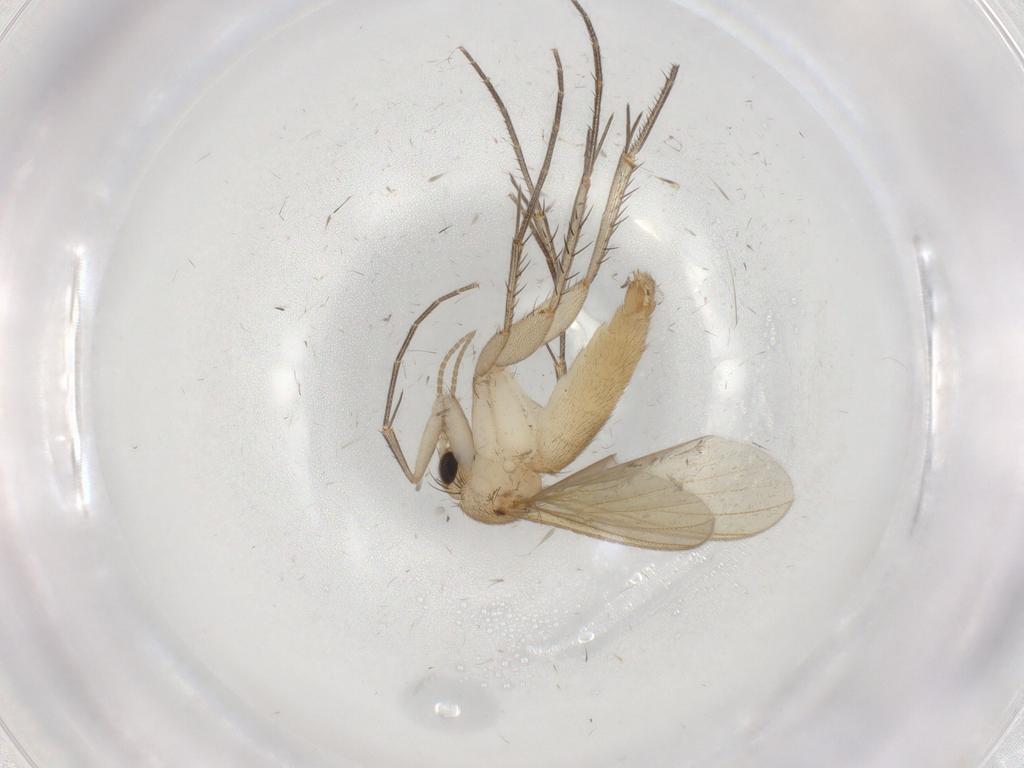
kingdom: Animalia
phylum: Arthropoda
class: Insecta
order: Diptera
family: Mycetophilidae
